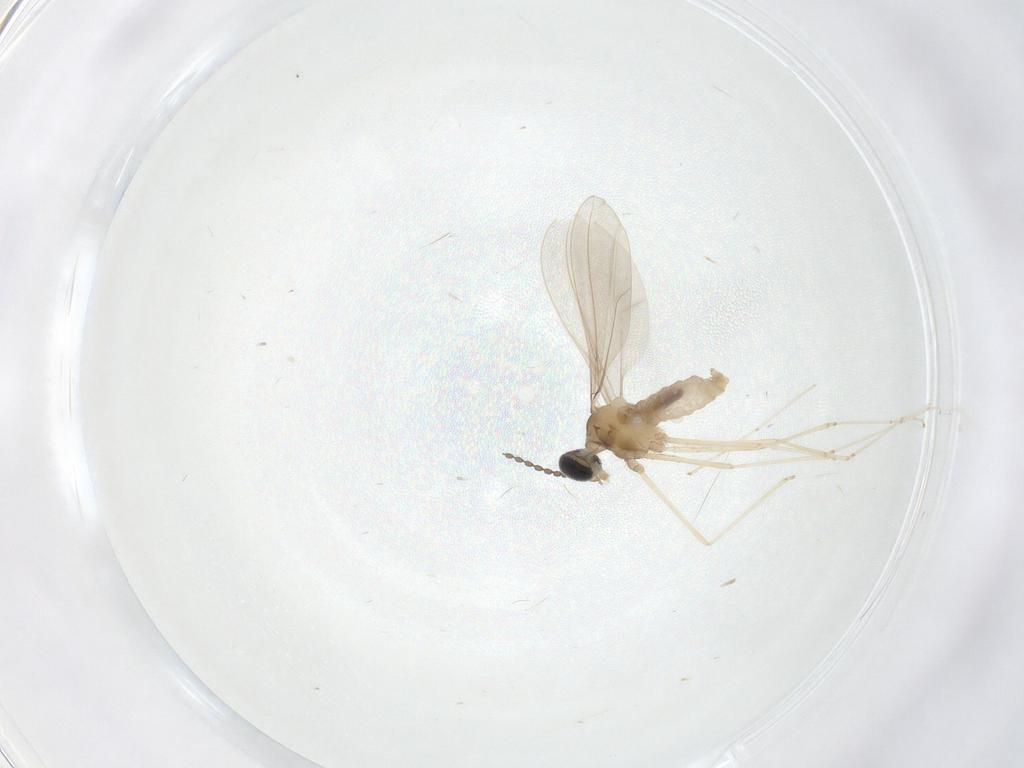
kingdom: Animalia
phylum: Arthropoda
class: Insecta
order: Diptera
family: Cecidomyiidae
